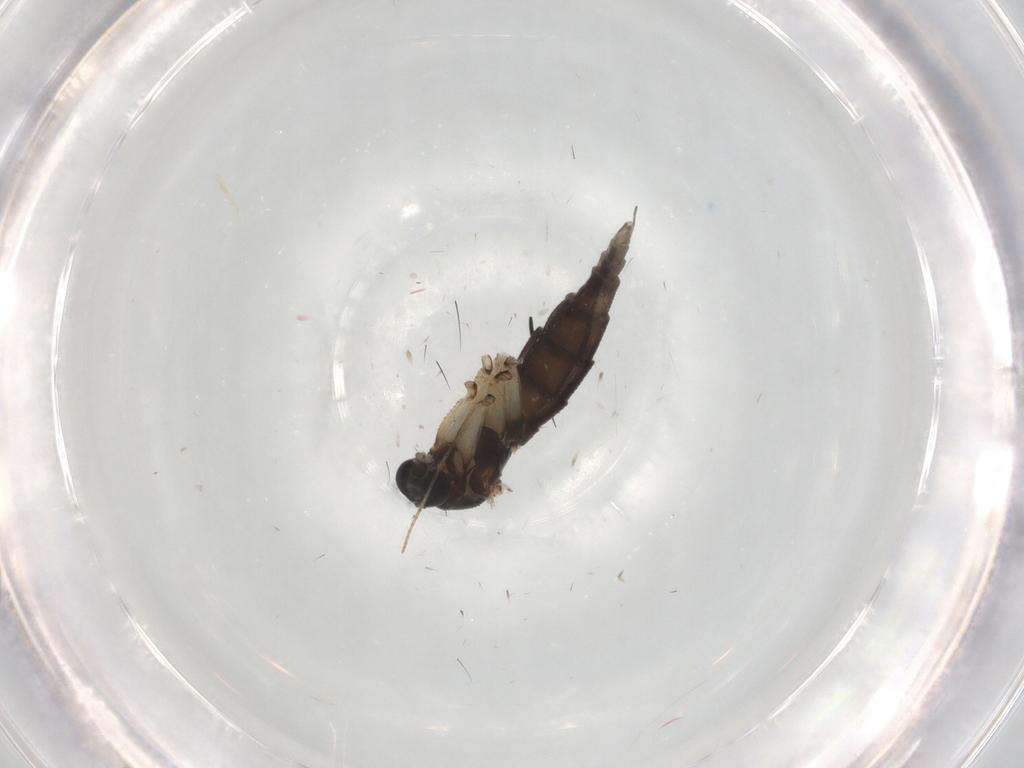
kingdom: Animalia
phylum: Arthropoda
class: Insecta
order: Diptera
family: Sciaridae
